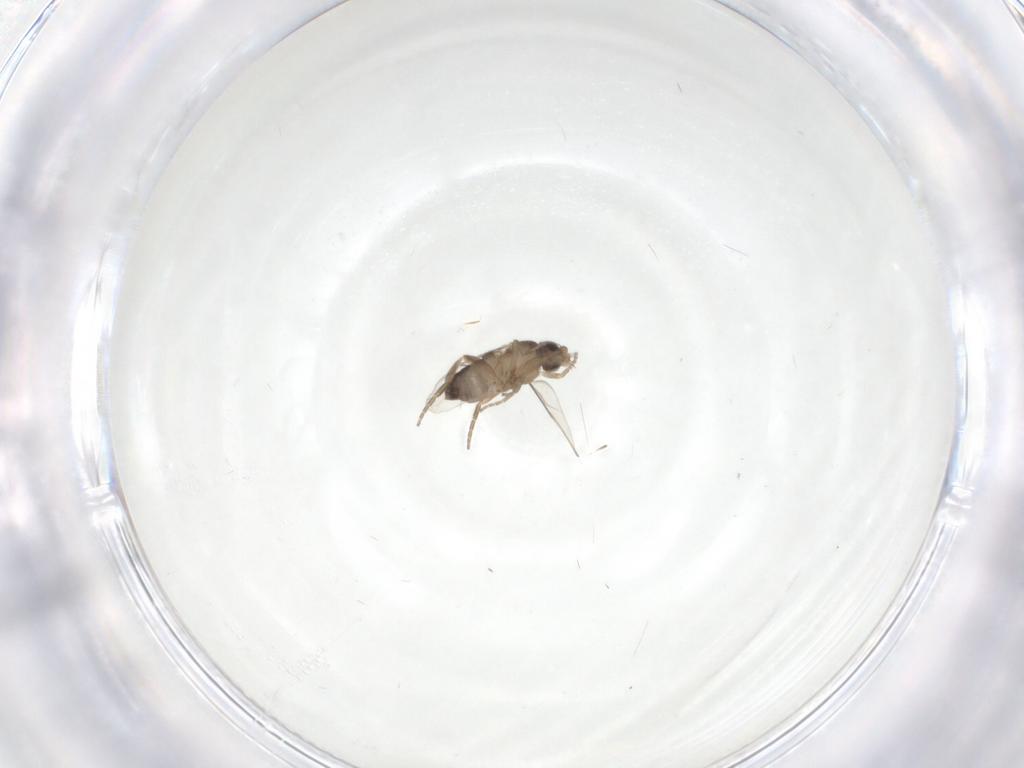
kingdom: Animalia
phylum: Arthropoda
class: Insecta
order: Diptera
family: Phoridae
